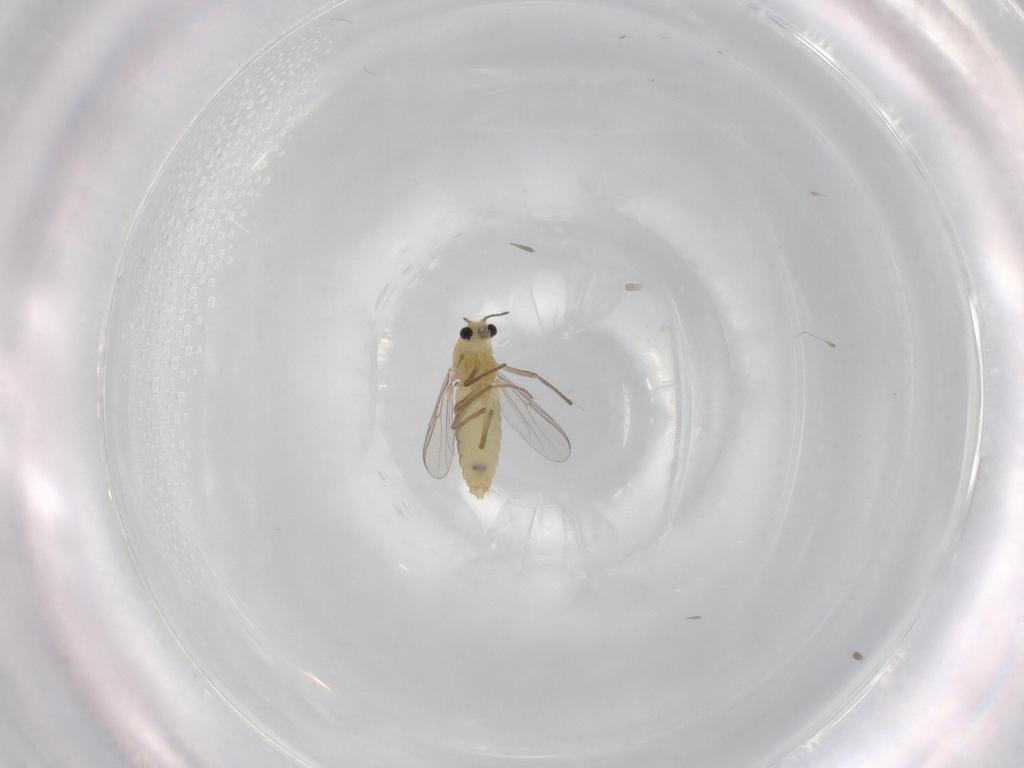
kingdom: Animalia
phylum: Arthropoda
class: Insecta
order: Diptera
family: Chironomidae
